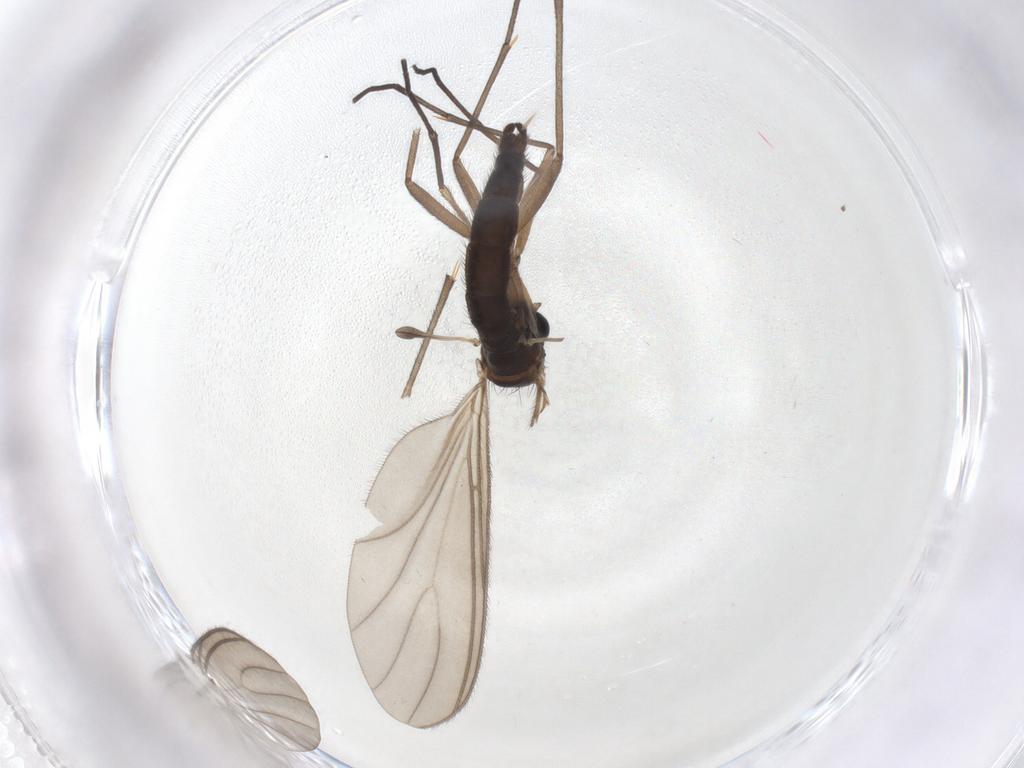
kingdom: Animalia
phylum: Arthropoda
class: Insecta
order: Diptera
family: Sciaridae
